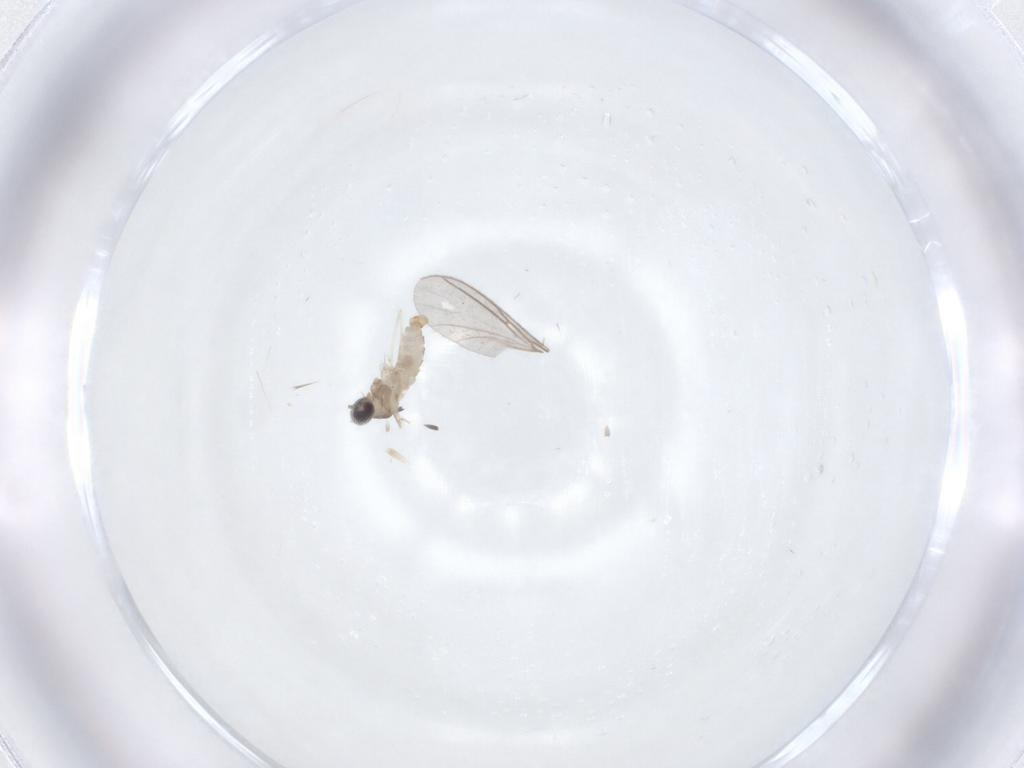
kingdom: Animalia
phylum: Arthropoda
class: Insecta
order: Diptera
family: Cecidomyiidae
